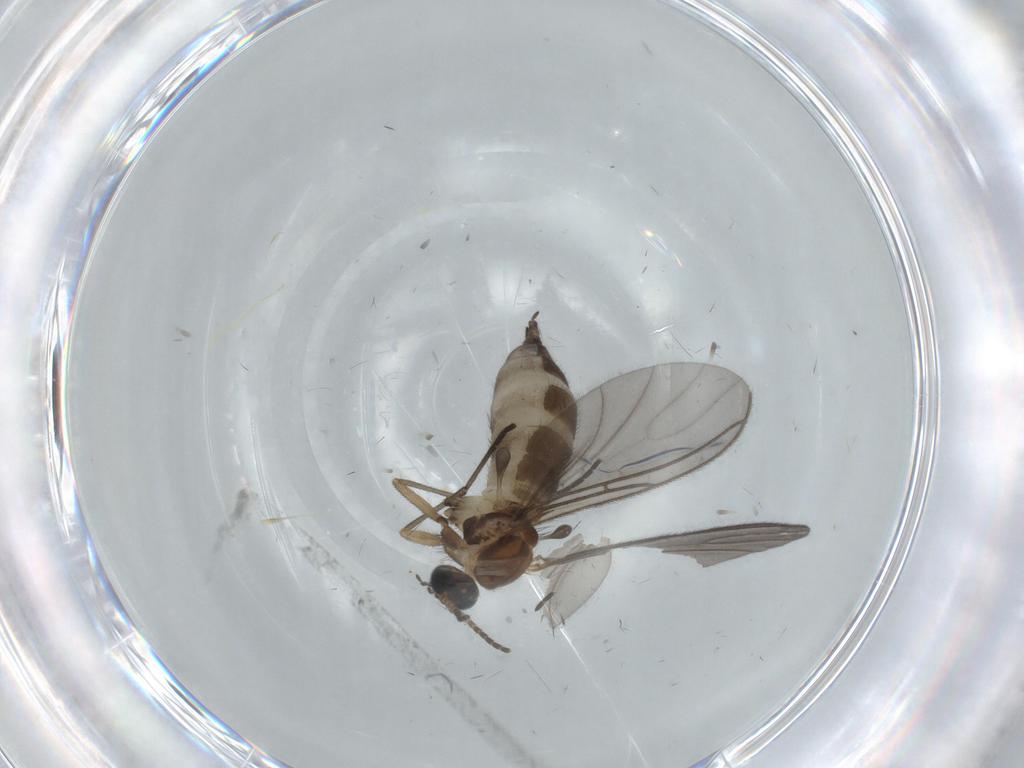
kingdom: Animalia
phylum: Arthropoda
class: Insecta
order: Diptera
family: Sciaridae
